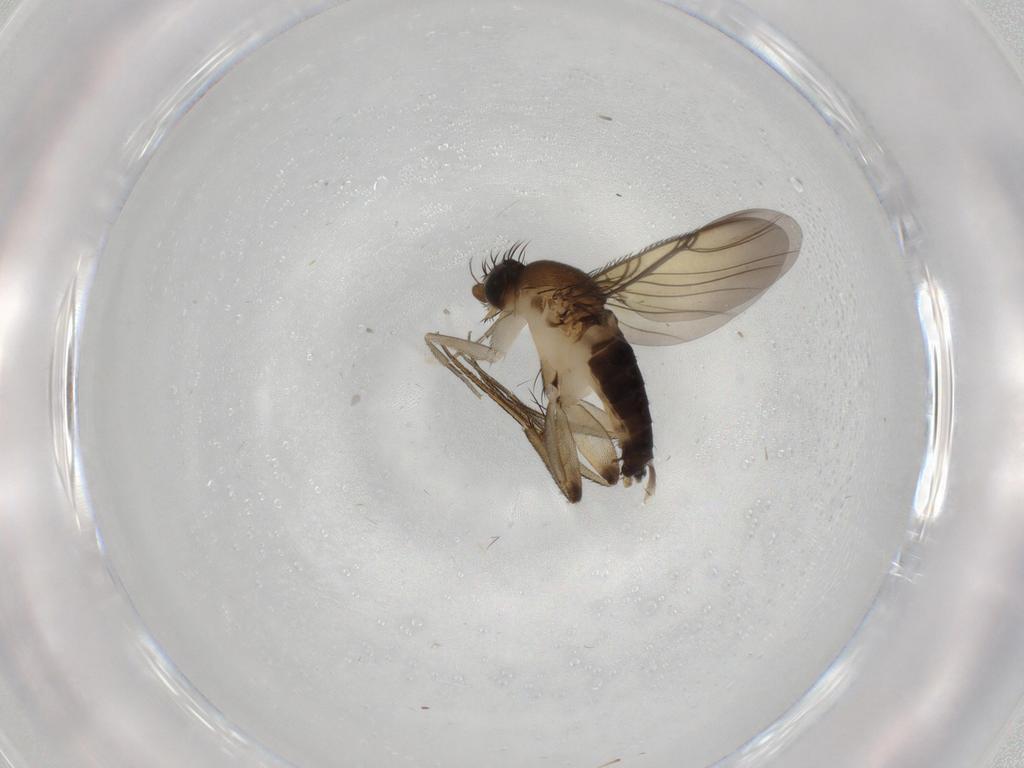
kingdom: Animalia
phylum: Arthropoda
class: Insecta
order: Diptera
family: Phoridae
